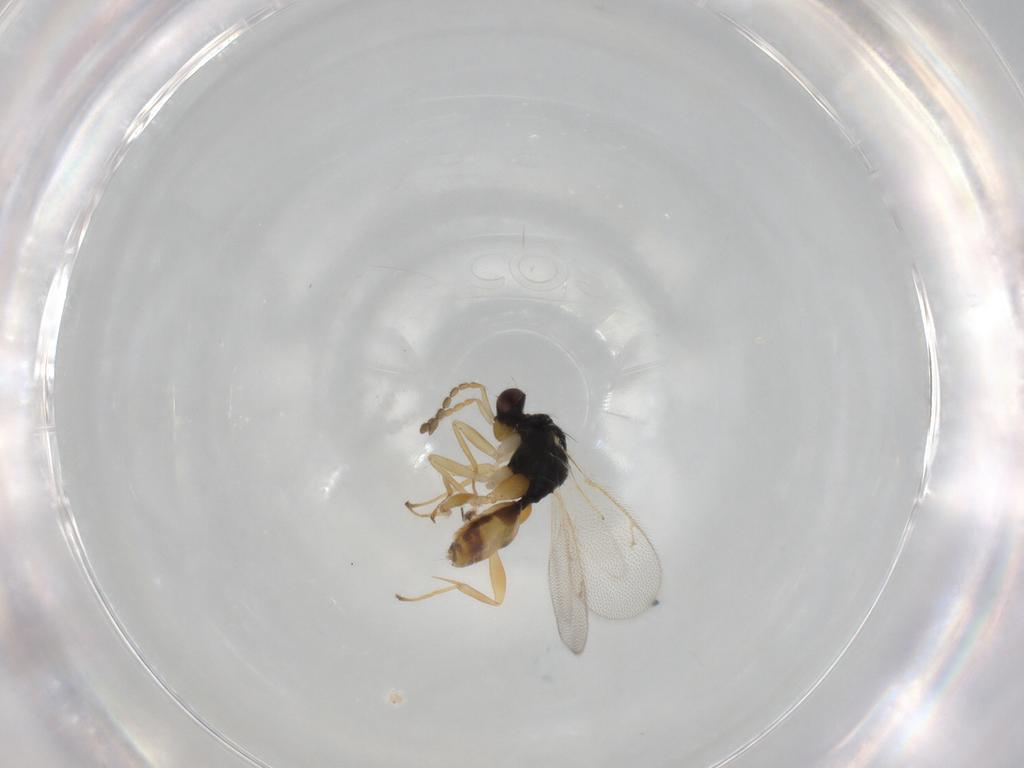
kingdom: Animalia
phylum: Arthropoda
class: Insecta
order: Hymenoptera
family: Eulophidae
